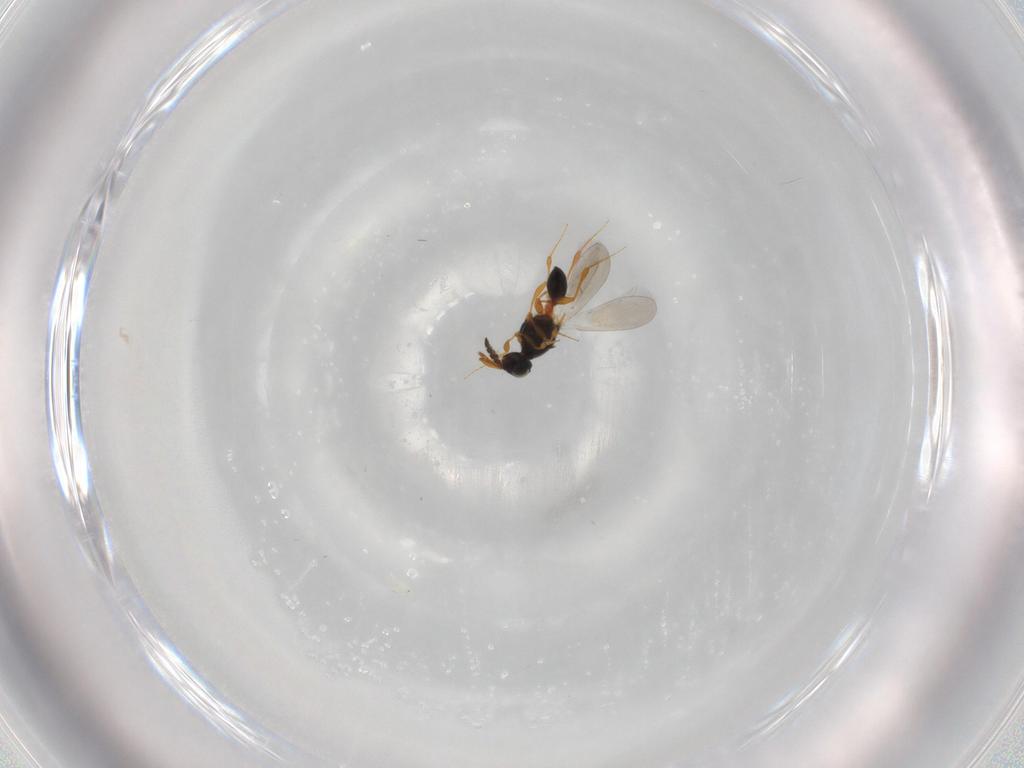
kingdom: Animalia
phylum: Arthropoda
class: Insecta
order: Hymenoptera
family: Platygastridae
